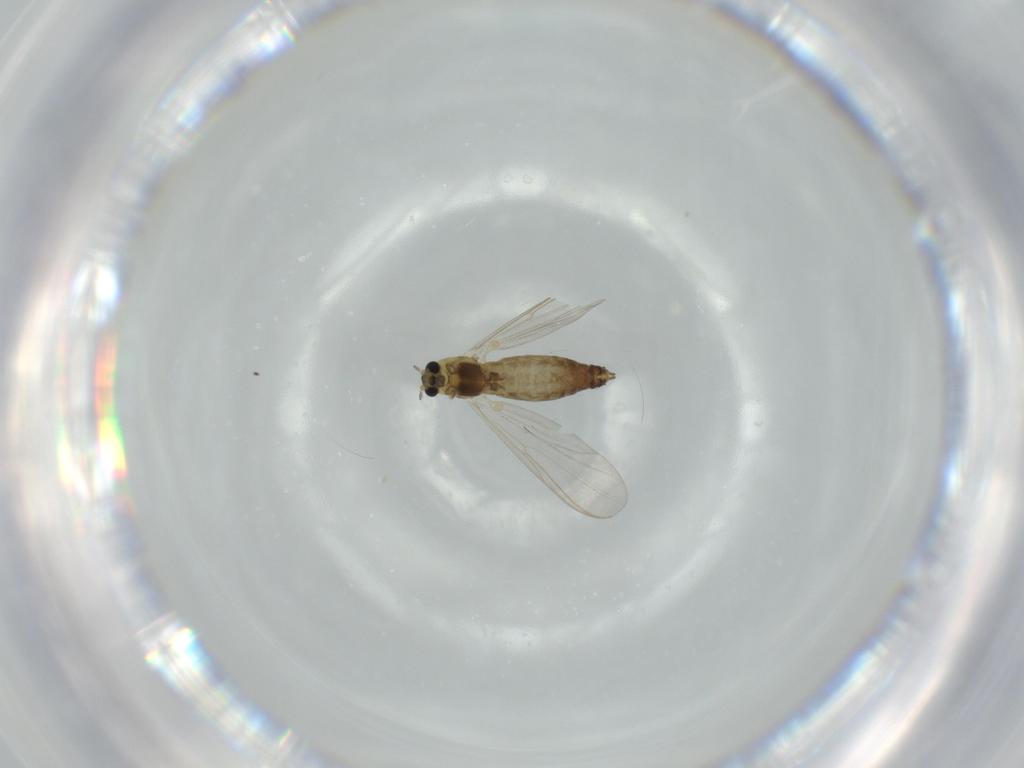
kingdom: Animalia
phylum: Arthropoda
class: Insecta
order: Diptera
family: Chironomidae
